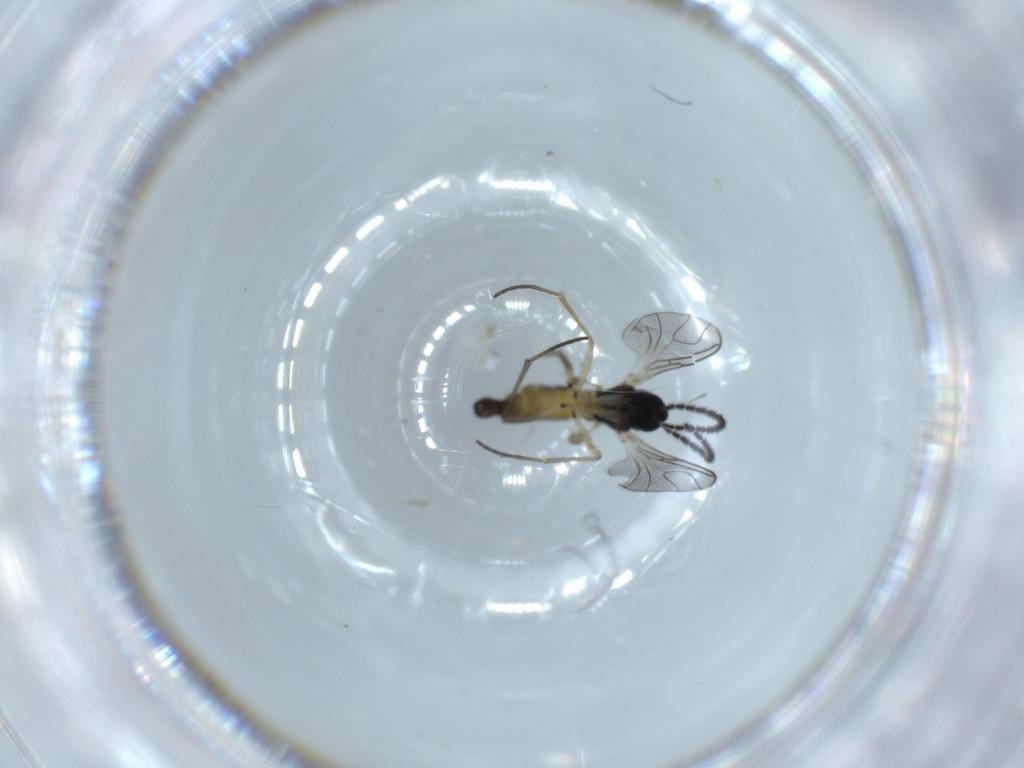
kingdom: Animalia
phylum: Arthropoda
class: Insecta
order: Diptera
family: Sciaridae
